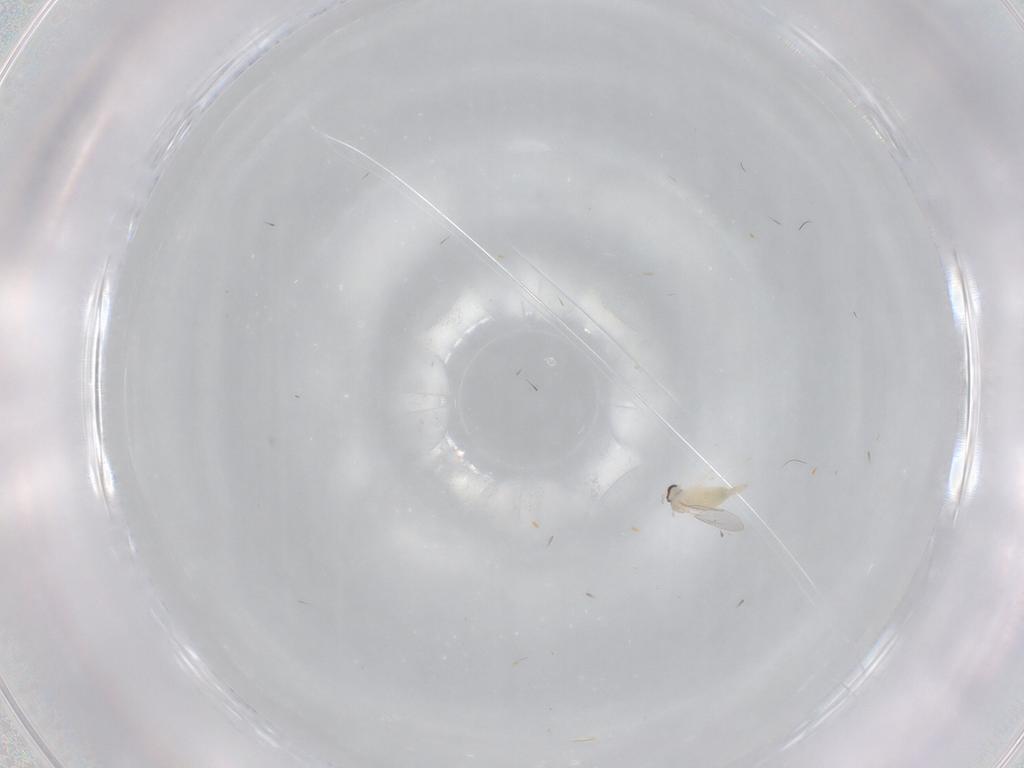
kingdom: Animalia
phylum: Arthropoda
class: Insecta
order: Diptera
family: Cecidomyiidae
